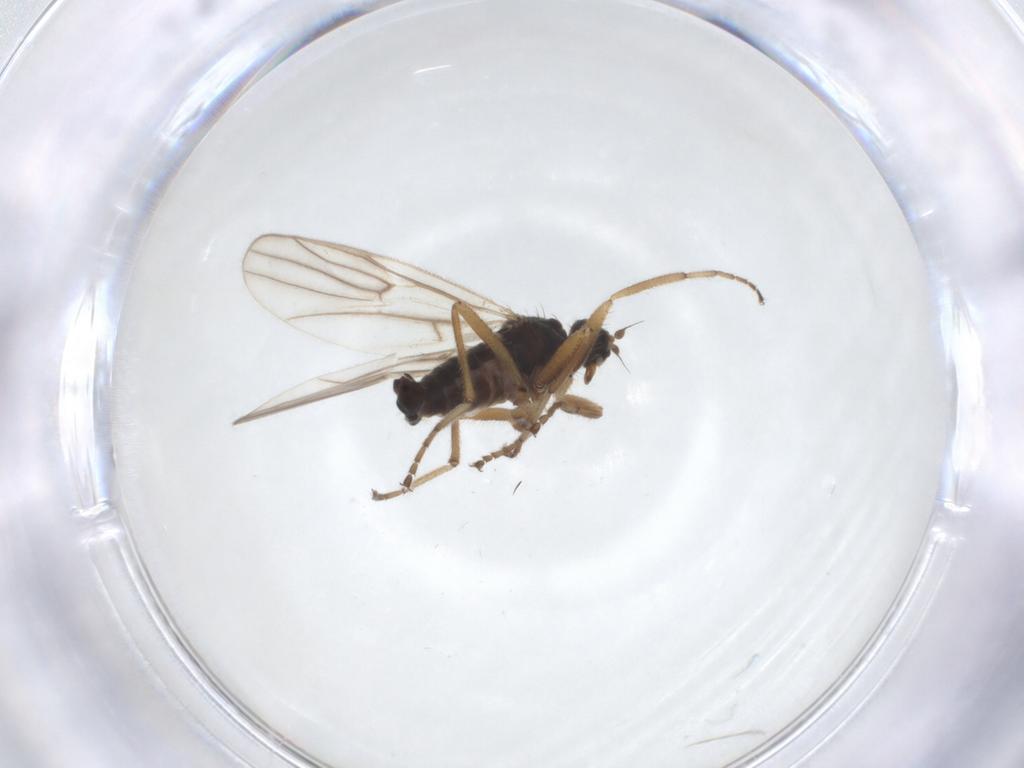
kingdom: Animalia
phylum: Arthropoda
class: Insecta
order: Diptera
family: Hybotidae
